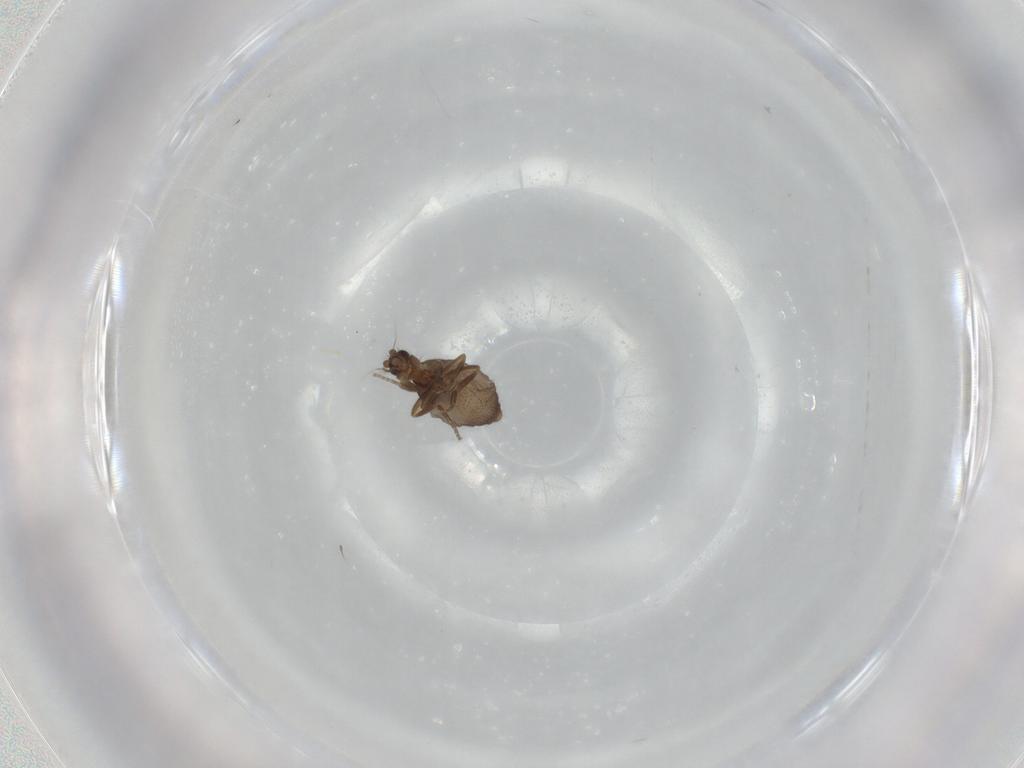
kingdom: Animalia
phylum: Arthropoda
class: Insecta
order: Diptera
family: Phoridae
